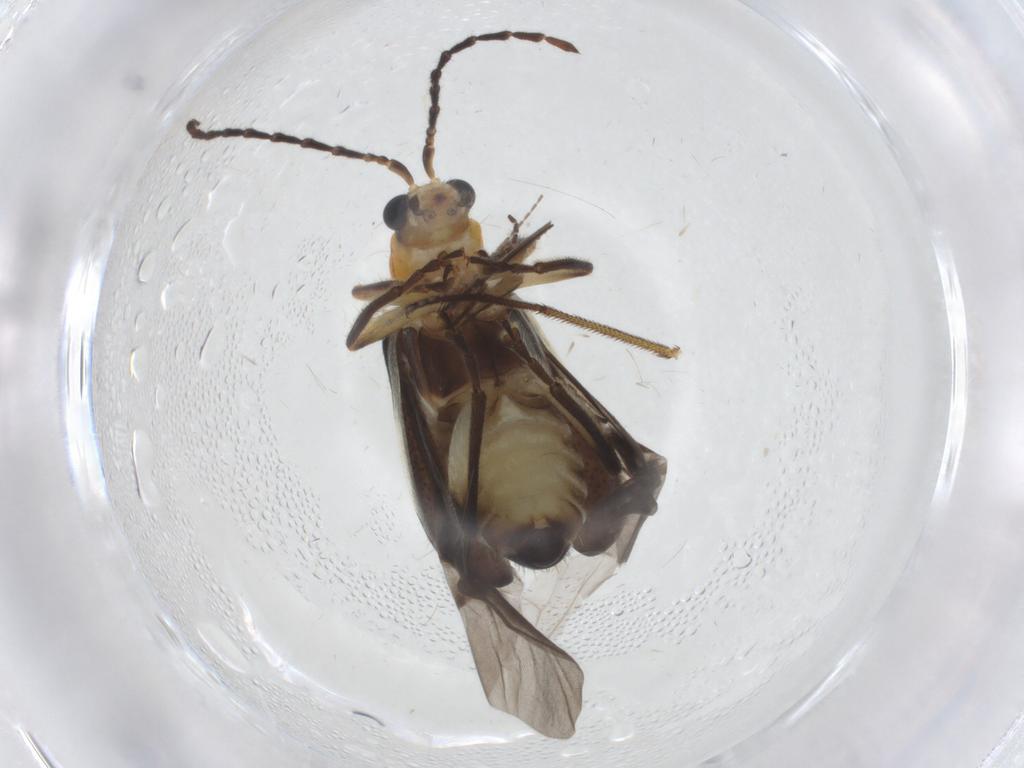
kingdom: Animalia
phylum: Arthropoda
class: Insecta
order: Coleoptera
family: Chrysomelidae
